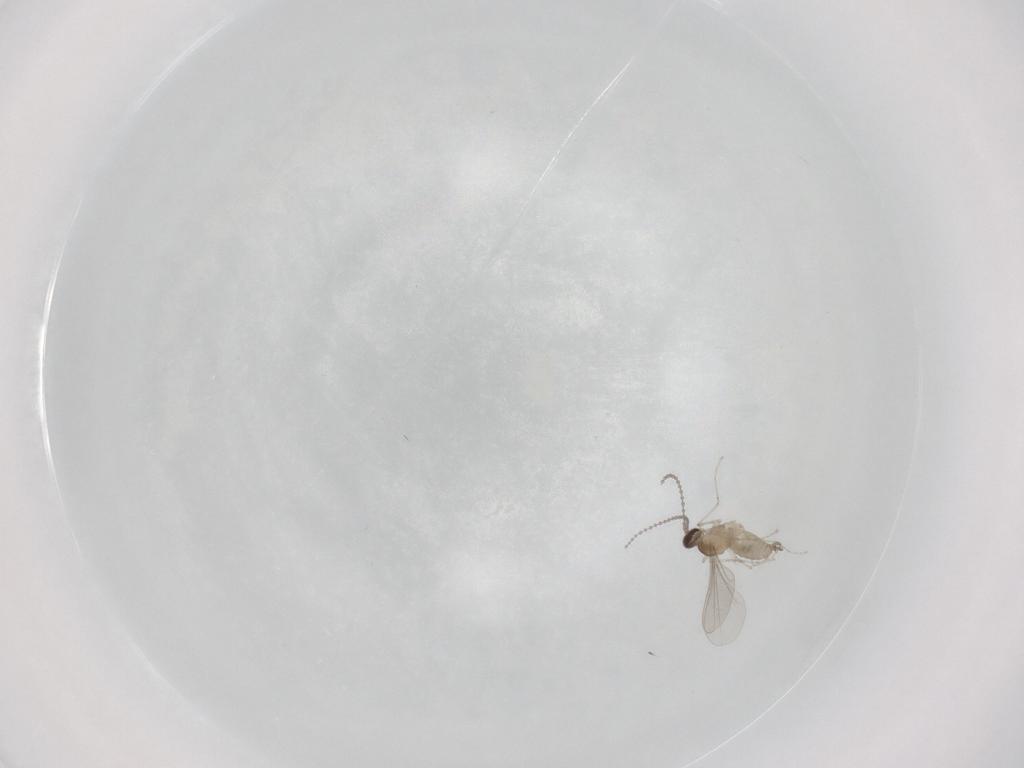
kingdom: Animalia
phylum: Arthropoda
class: Insecta
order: Diptera
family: Cecidomyiidae
